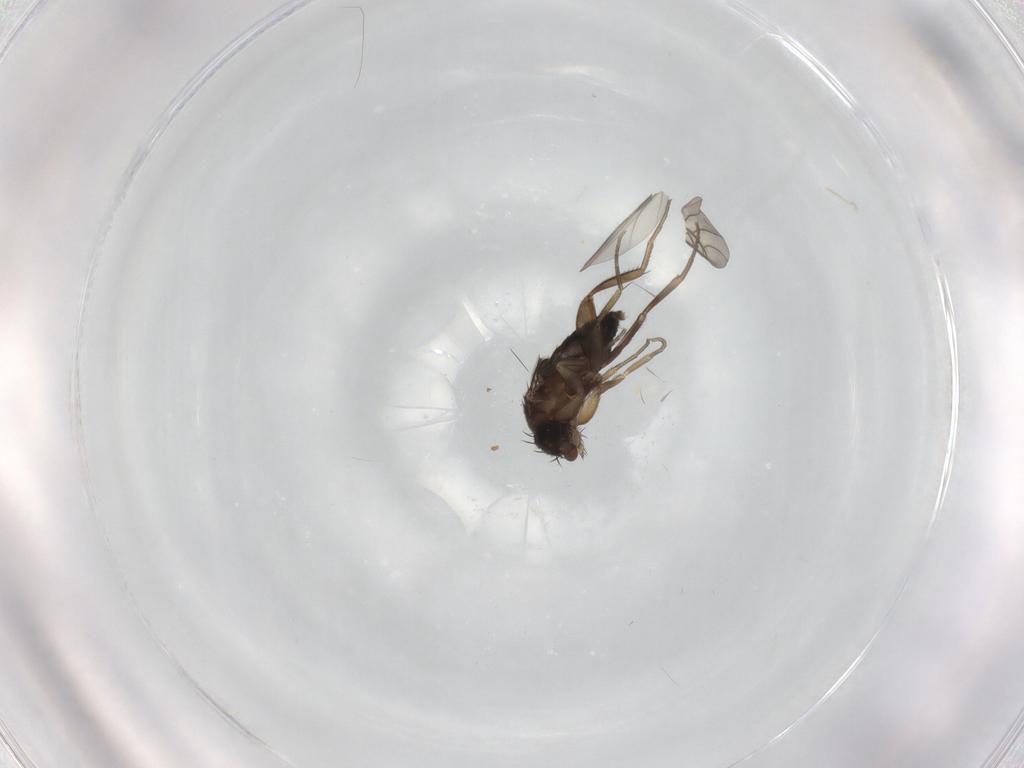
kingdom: Animalia
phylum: Arthropoda
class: Insecta
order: Diptera
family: Phoridae
